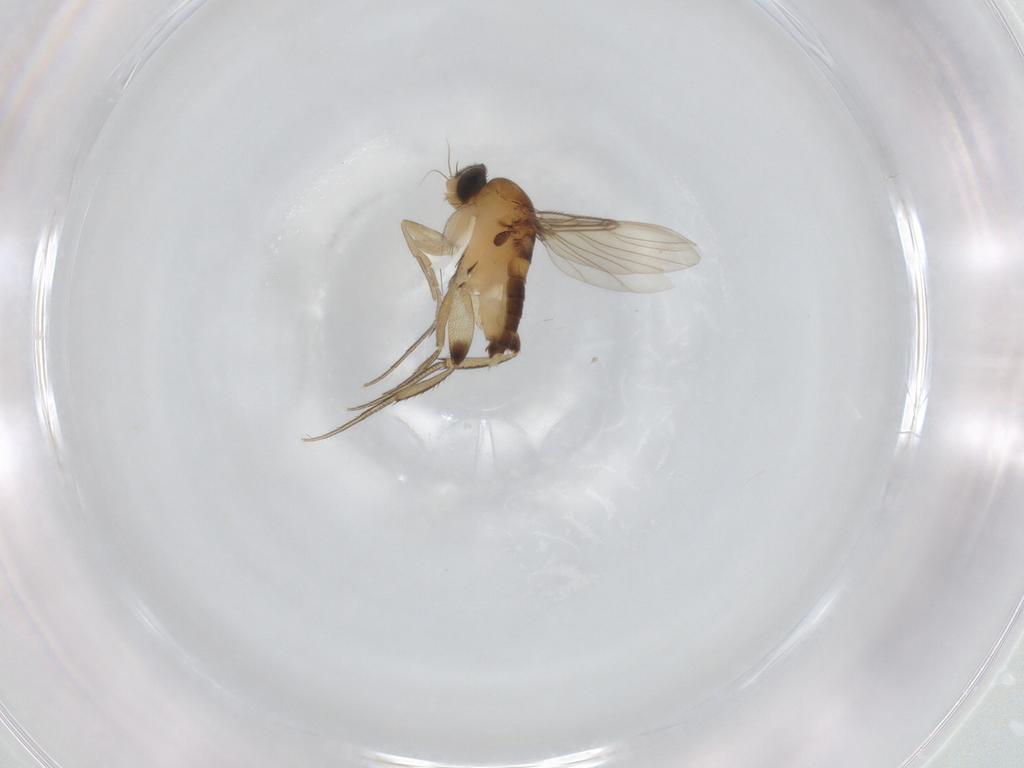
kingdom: Animalia
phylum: Arthropoda
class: Insecta
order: Diptera
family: Phoridae
